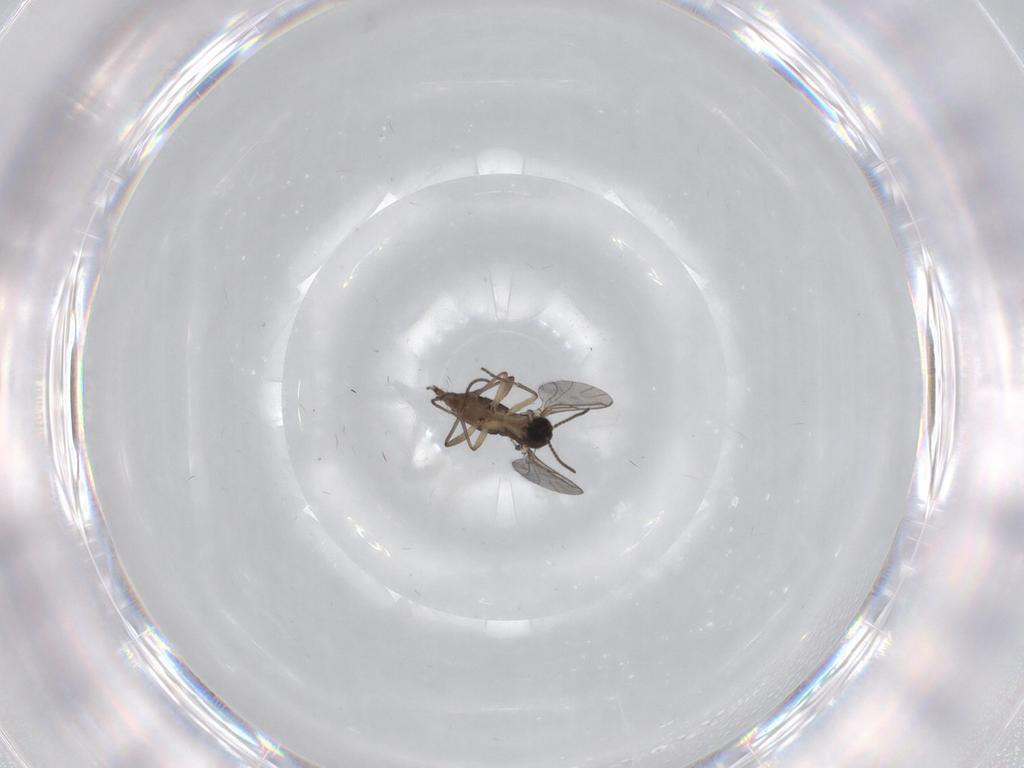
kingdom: Animalia
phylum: Arthropoda
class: Insecta
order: Diptera
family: Sciaridae
